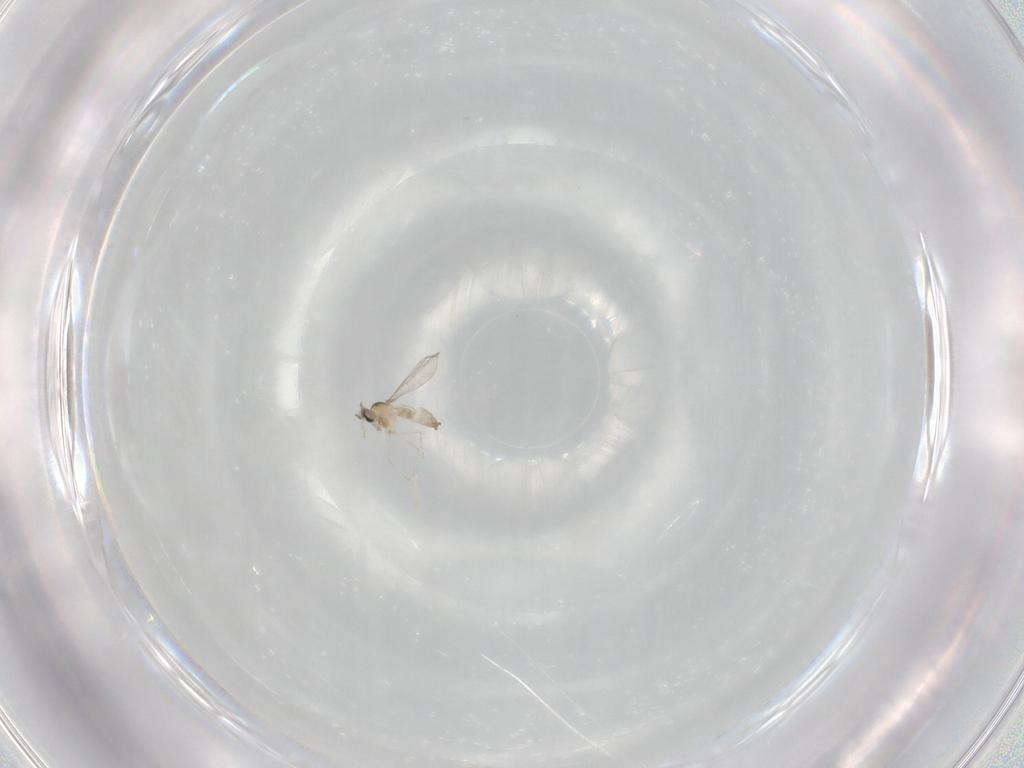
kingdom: Animalia
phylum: Arthropoda
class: Insecta
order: Diptera
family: Cecidomyiidae
